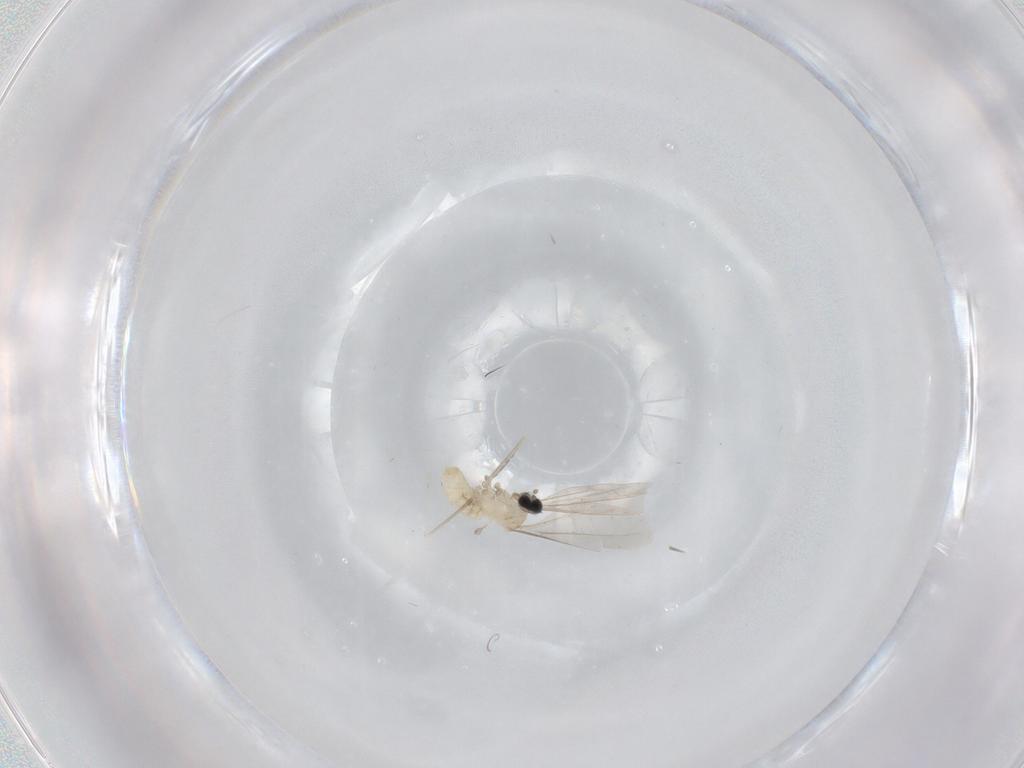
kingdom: Animalia
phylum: Arthropoda
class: Insecta
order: Diptera
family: Cecidomyiidae
